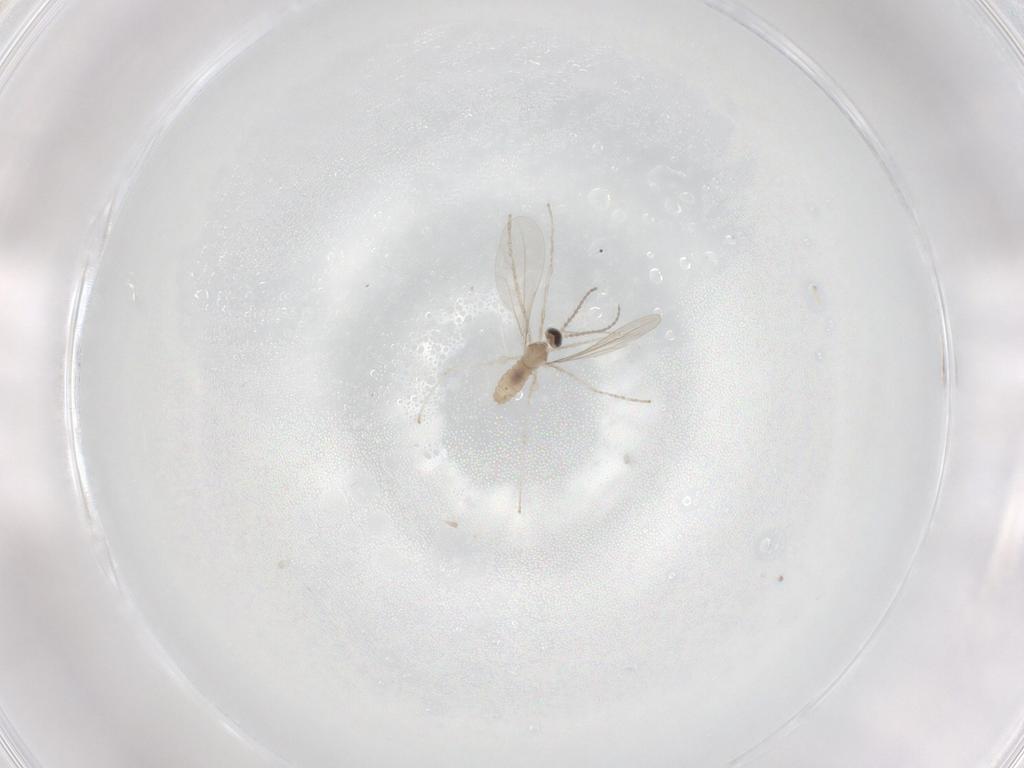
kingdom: Animalia
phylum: Arthropoda
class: Insecta
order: Diptera
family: Chironomidae
